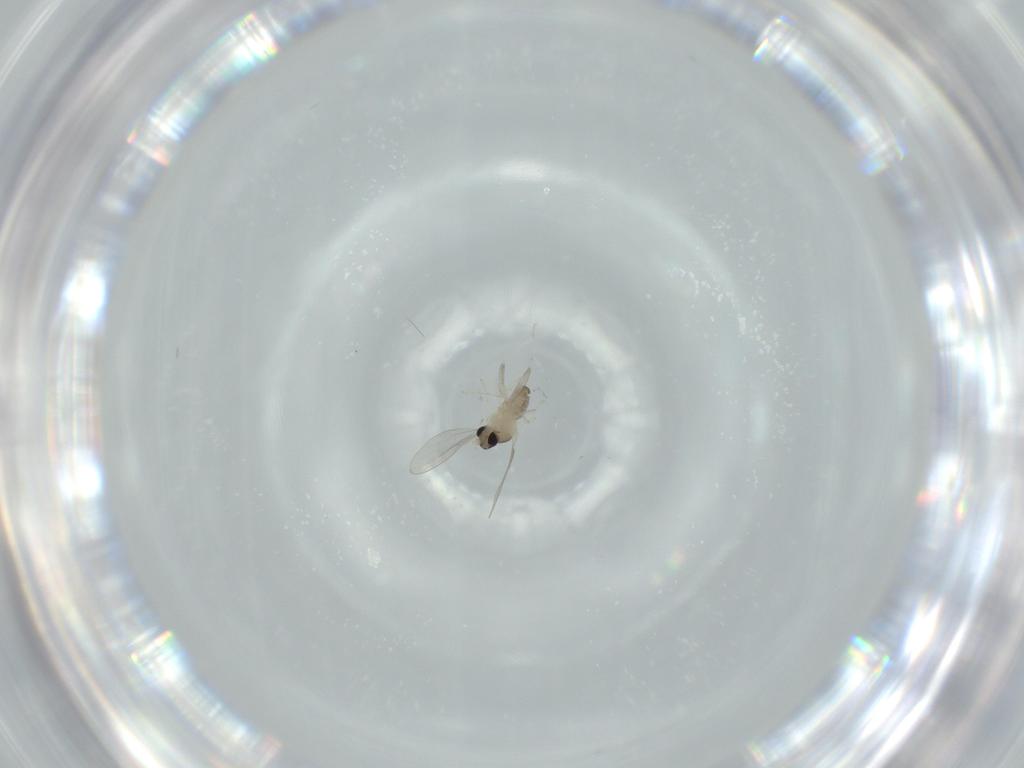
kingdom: Animalia
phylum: Arthropoda
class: Insecta
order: Diptera
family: Cecidomyiidae
